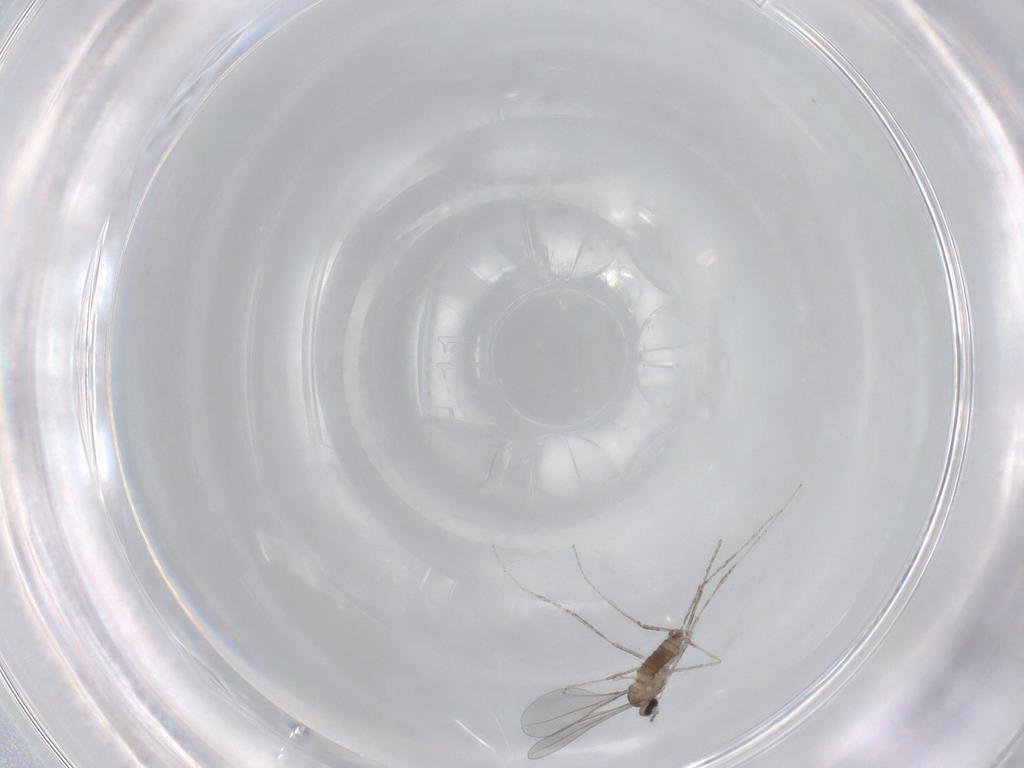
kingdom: Animalia
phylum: Arthropoda
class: Insecta
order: Diptera
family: Cecidomyiidae
